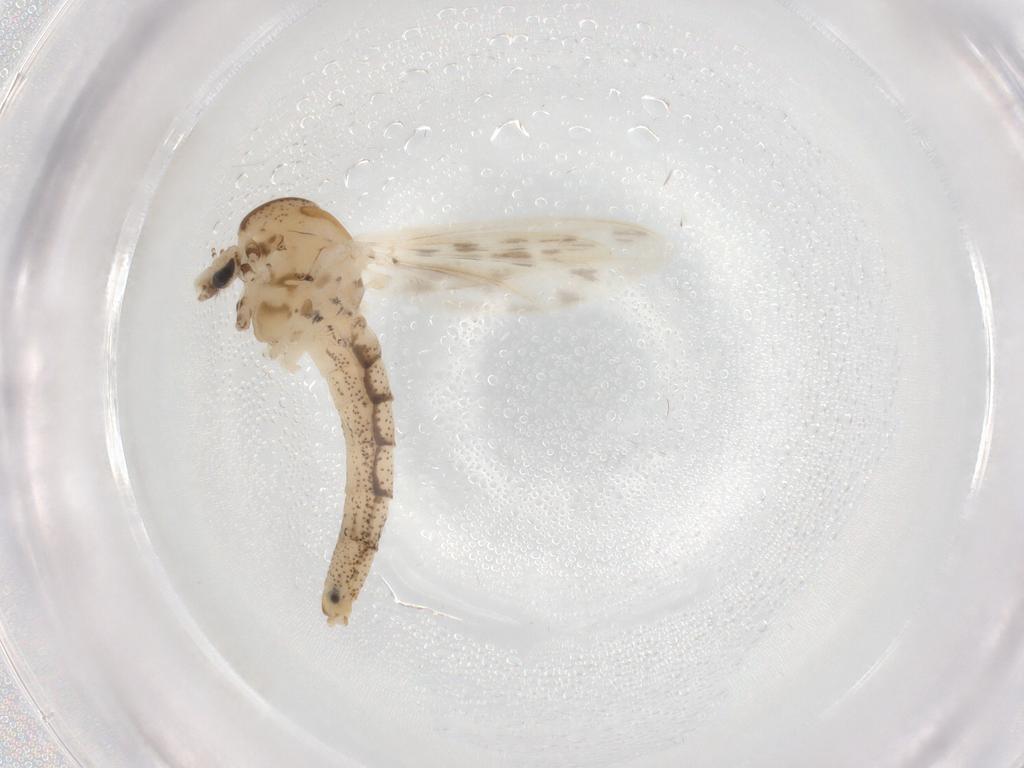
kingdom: Animalia
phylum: Arthropoda
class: Insecta
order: Diptera
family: Chaoboridae
